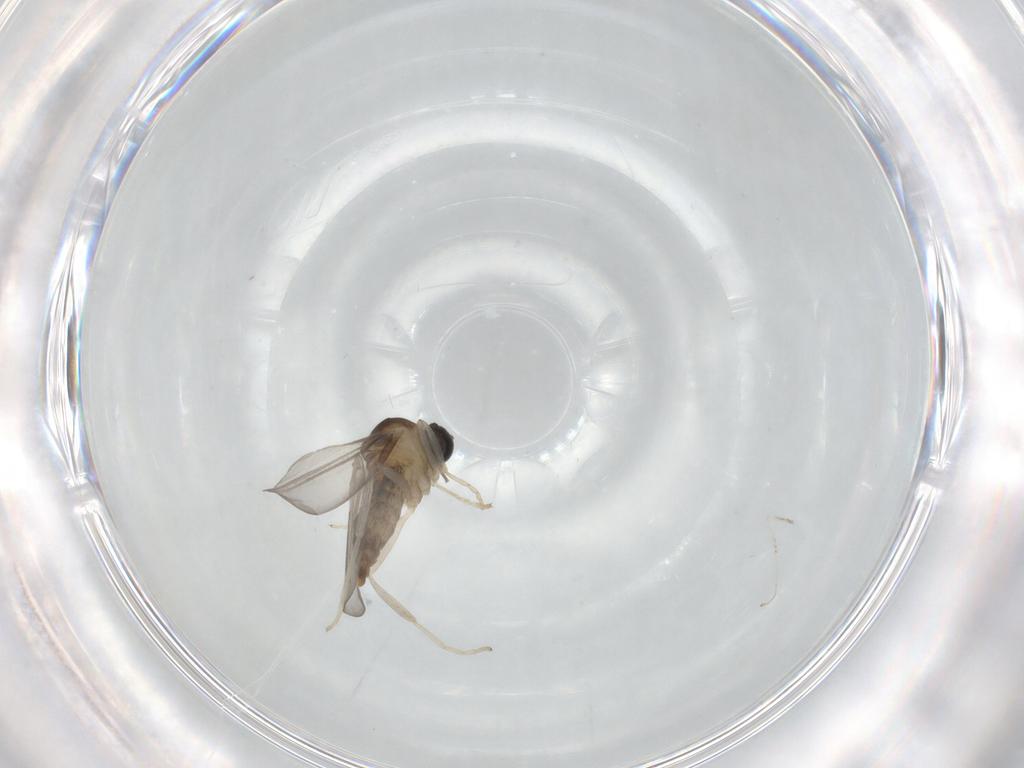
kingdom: Animalia
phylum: Arthropoda
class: Insecta
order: Diptera
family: Cecidomyiidae
